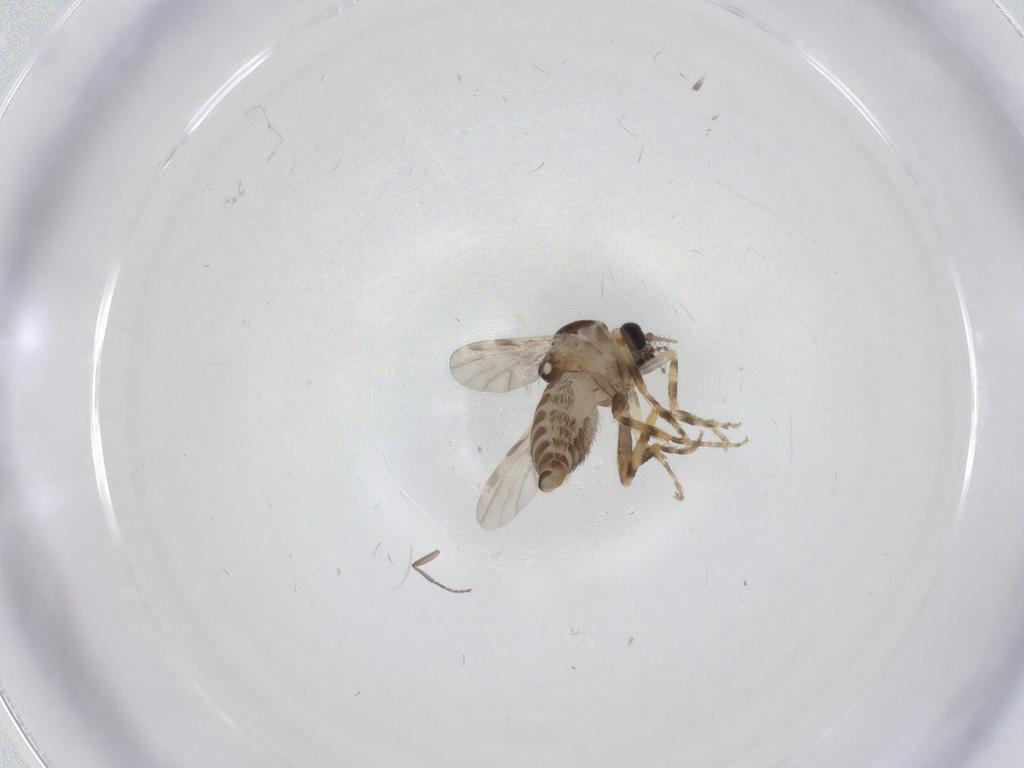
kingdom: Animalia
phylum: Arthropoda
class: Insecta
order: Diptera
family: Ceratopogonidae
